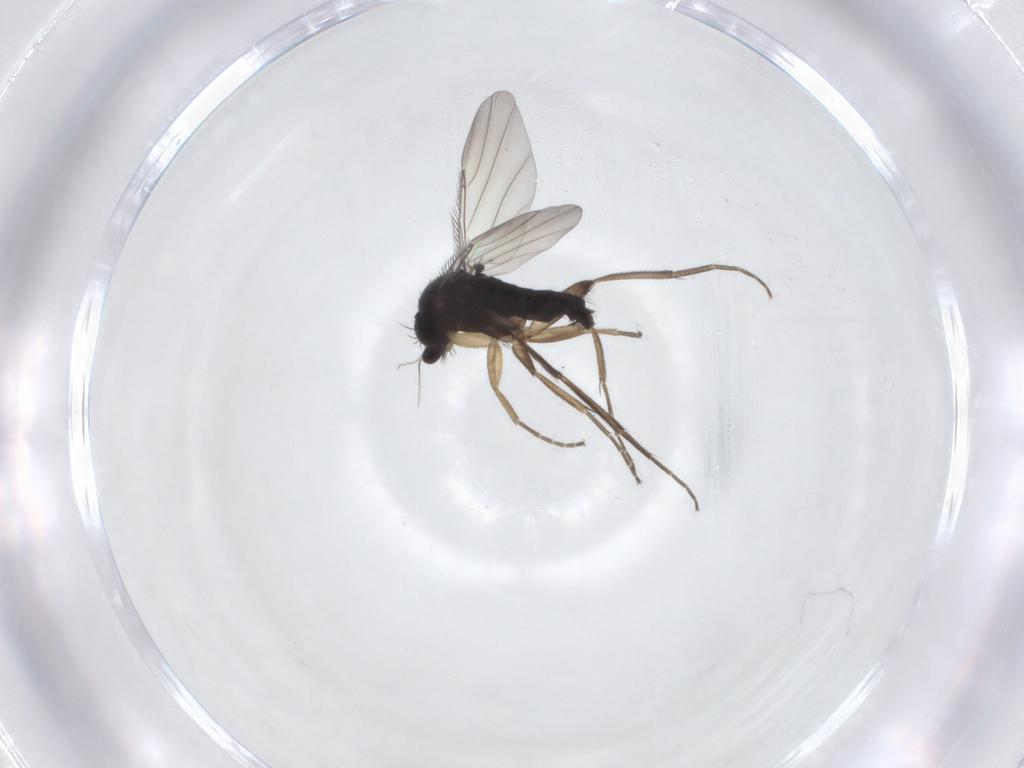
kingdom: Animalia
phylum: Arthropoda
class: Insecta
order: Diptera
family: Phoridae
